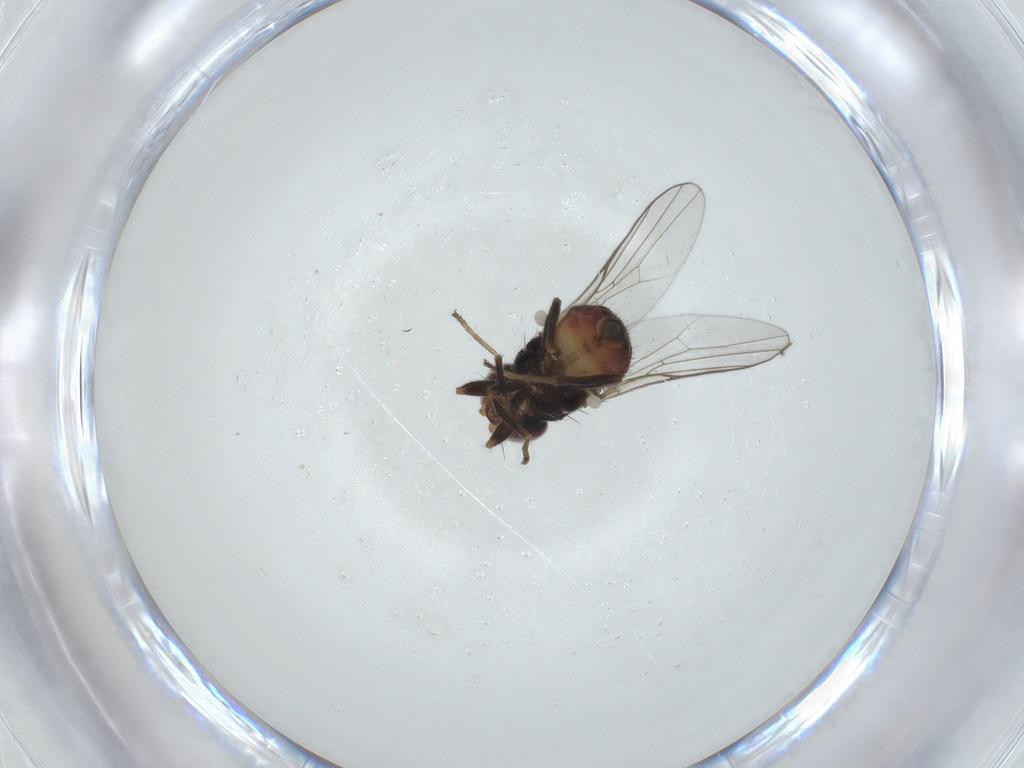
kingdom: Animalia
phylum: Arthropoda
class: Insecta
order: Diptera
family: Chloropidae
